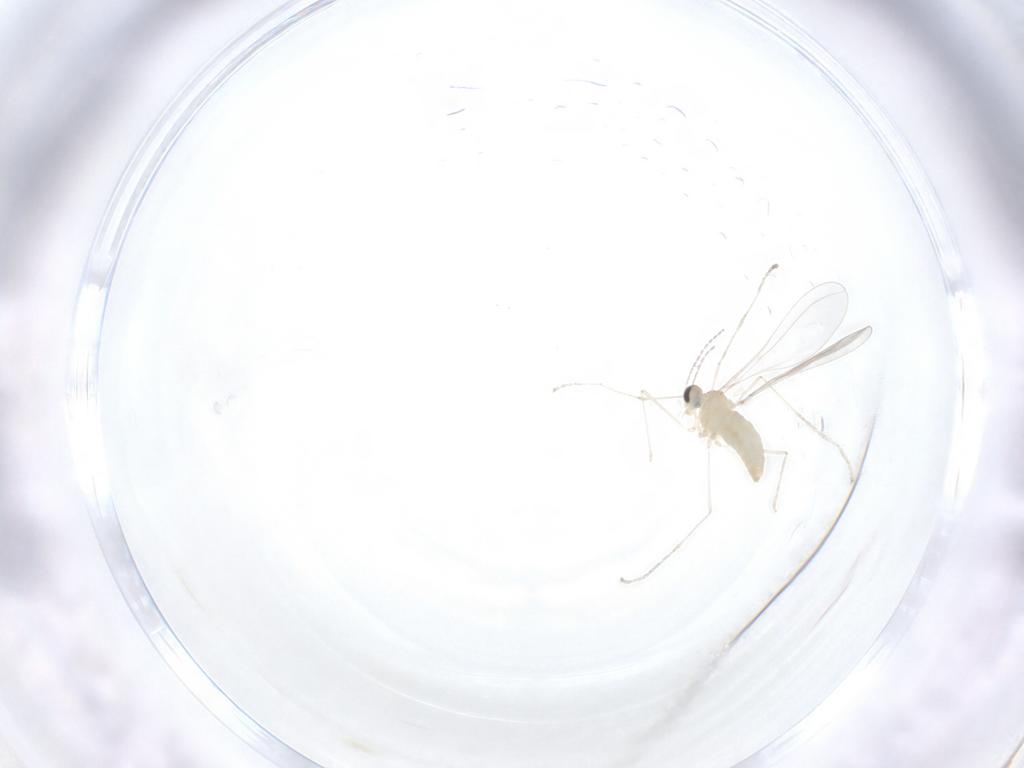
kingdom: Animalia
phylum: Arthropoda
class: Insecta
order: Diptera
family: Cecidomyiidae
